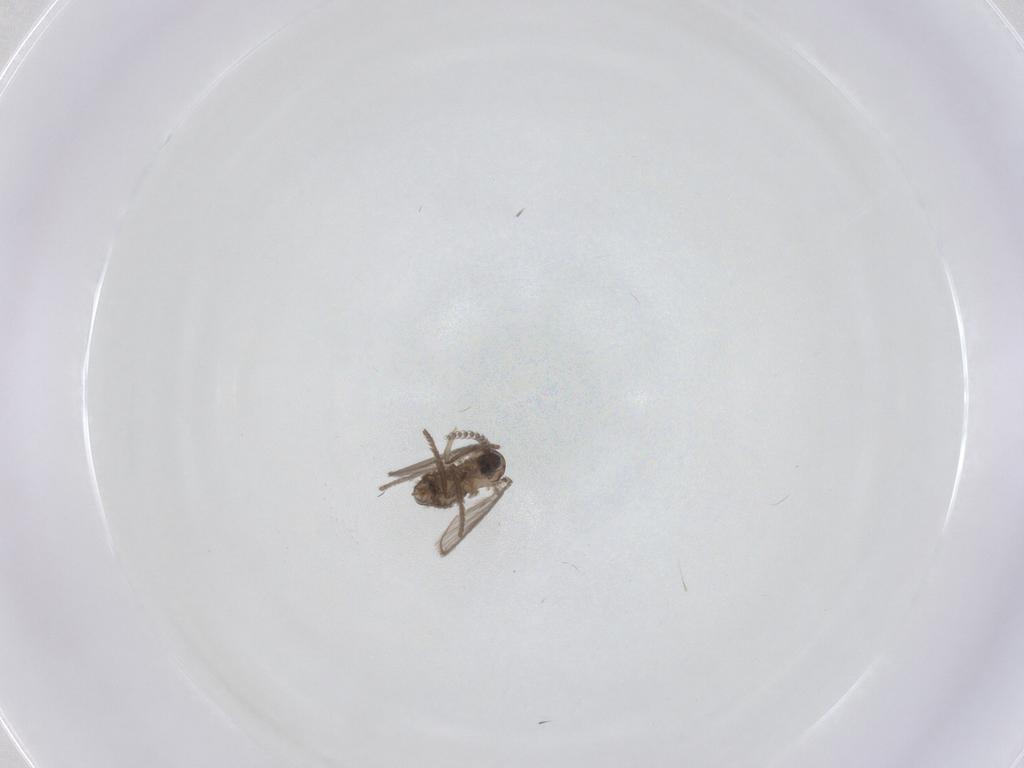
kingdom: Animalia
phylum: Arthropoda
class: Insecta
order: Diptera
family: Psychodidae
